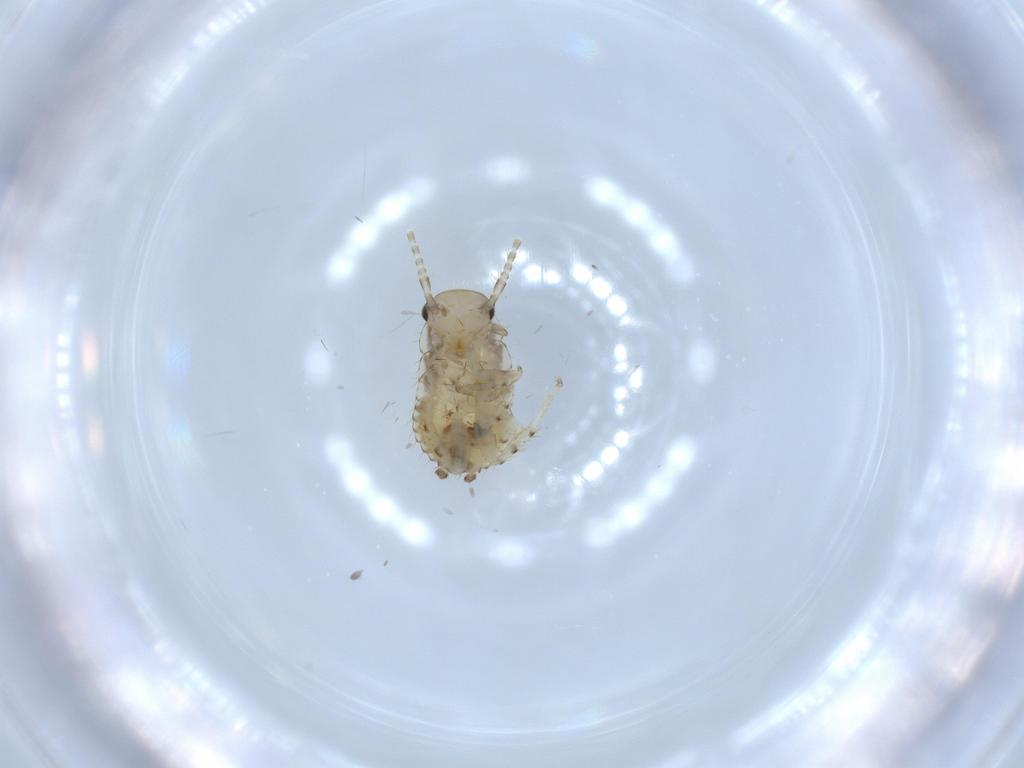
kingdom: Animalia
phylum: Arthropoda
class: Insecta
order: Blattodea
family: Ectobiidae
